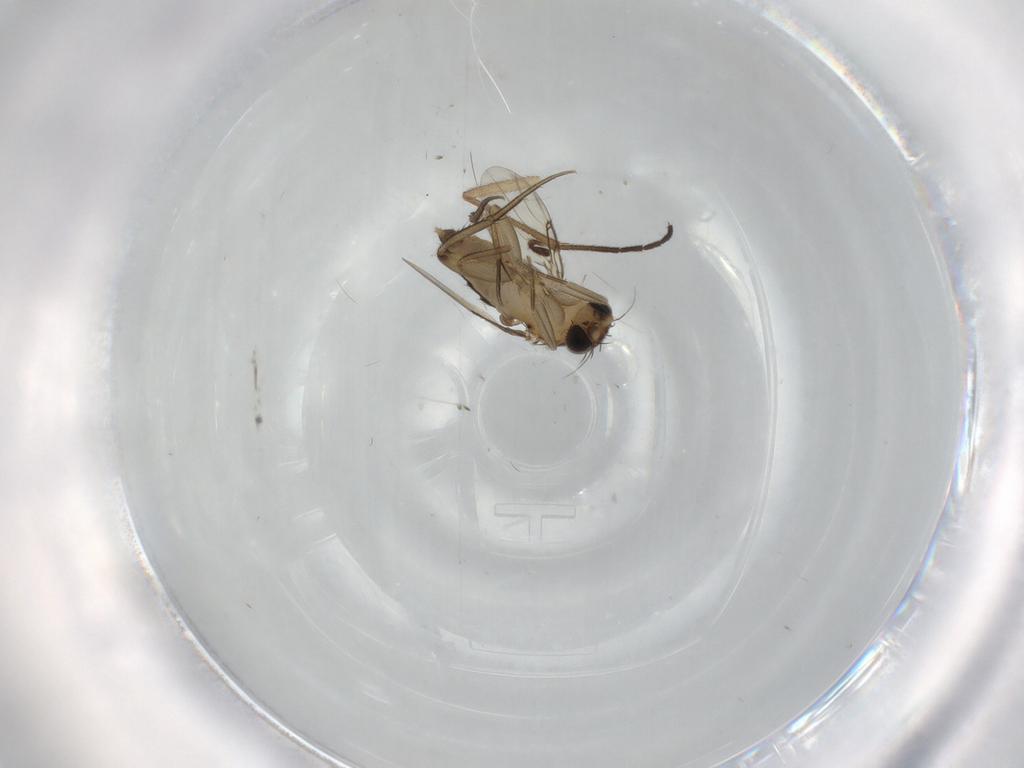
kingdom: Animalia
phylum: Arthropoda
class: Insecta
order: Diptera
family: Phoridae
